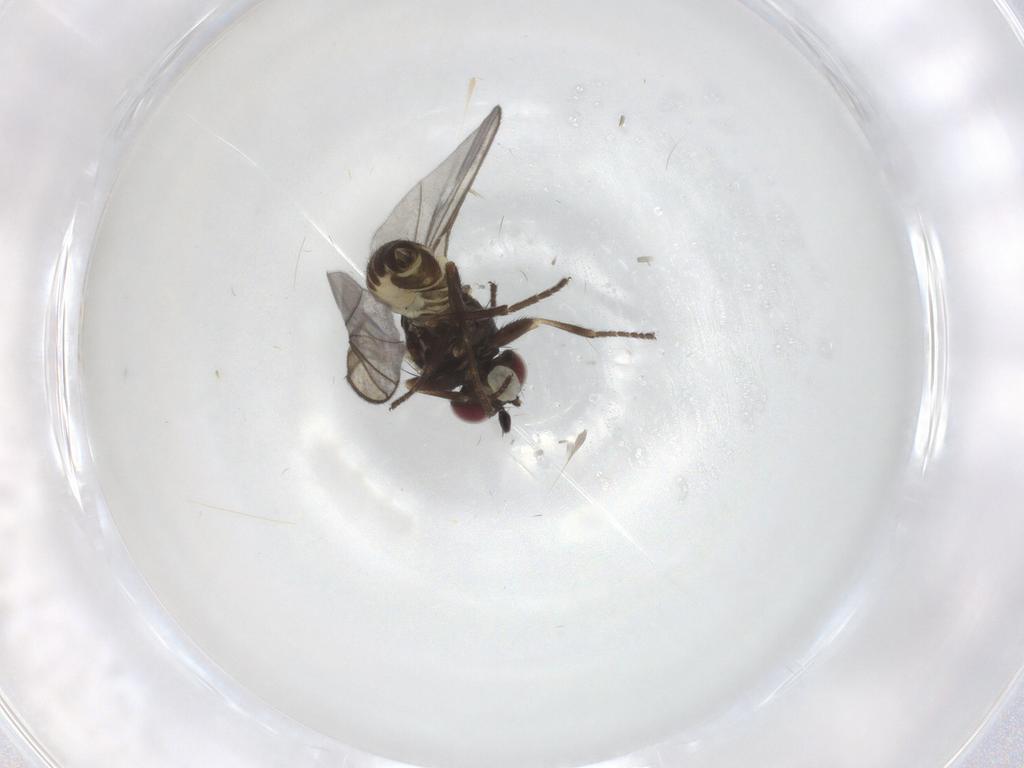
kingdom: Animalia
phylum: Arthropoda
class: Insecta
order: Diptera
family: Agromyzidae
